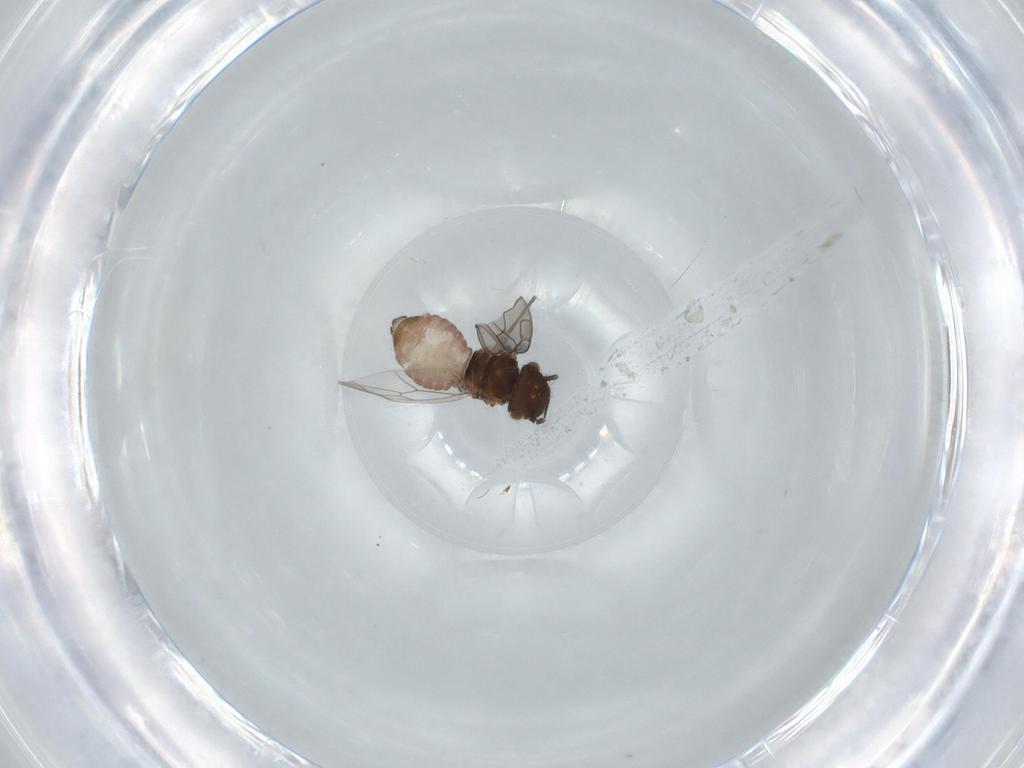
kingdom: Animalia
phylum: Arthropoda
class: Insecta
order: Psocodea
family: Ectopsocidae
